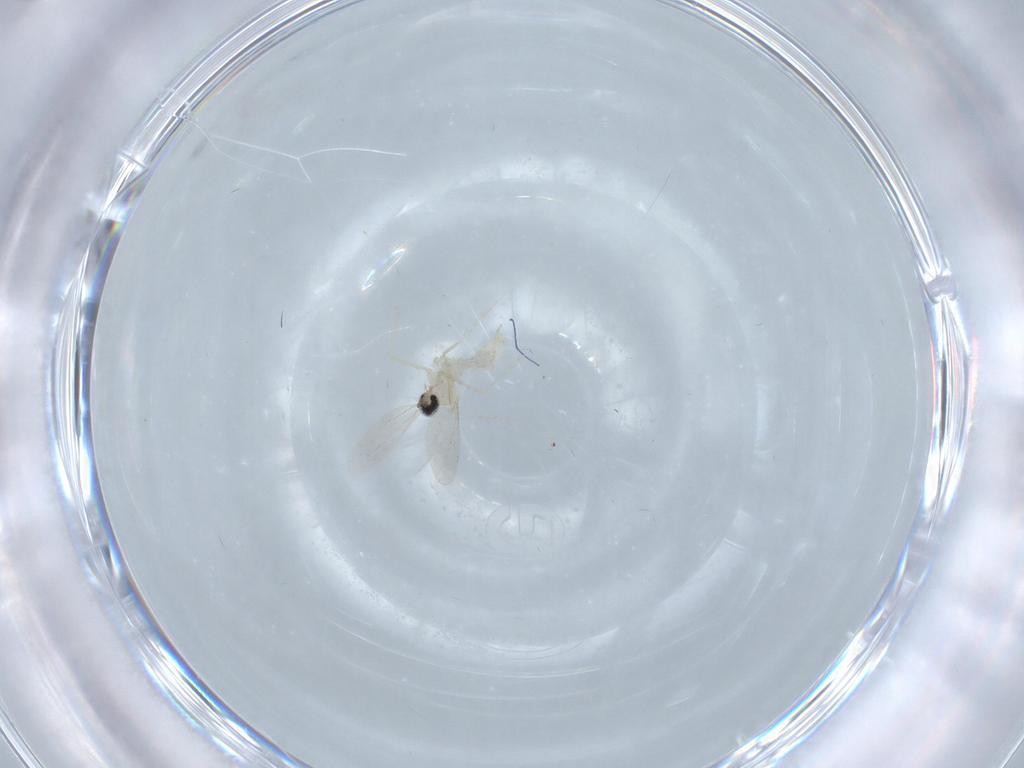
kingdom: Animalia
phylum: Arthropoda
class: Insecta
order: Diptera
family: Cecidomyiidae
